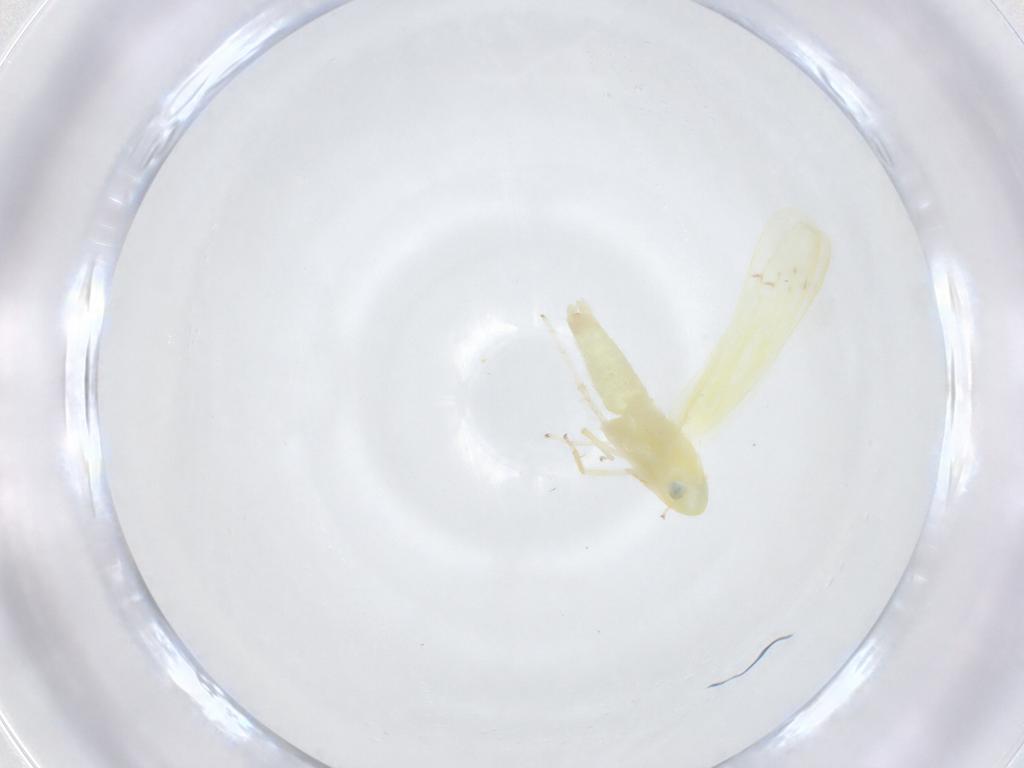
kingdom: Animalia
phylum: Arthropoda
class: Insecta
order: Hemiptera
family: Cicadellidae
